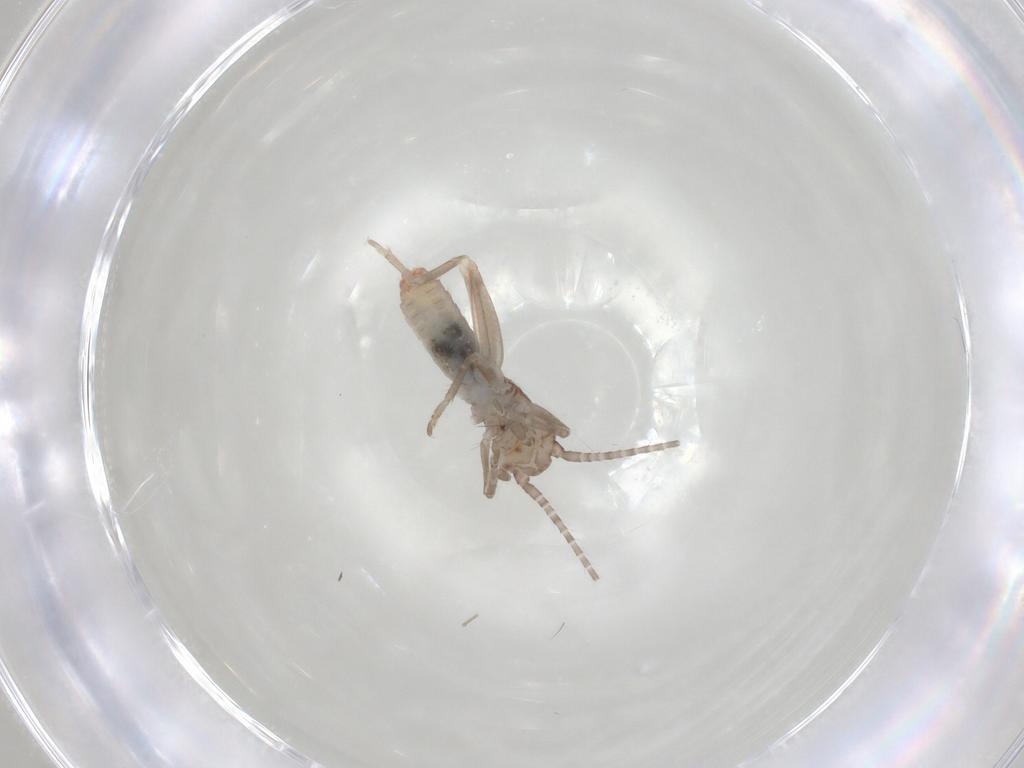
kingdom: Animalia
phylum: Arthropoda
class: Insecta
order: Orthoptera
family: Mogoplistidae
